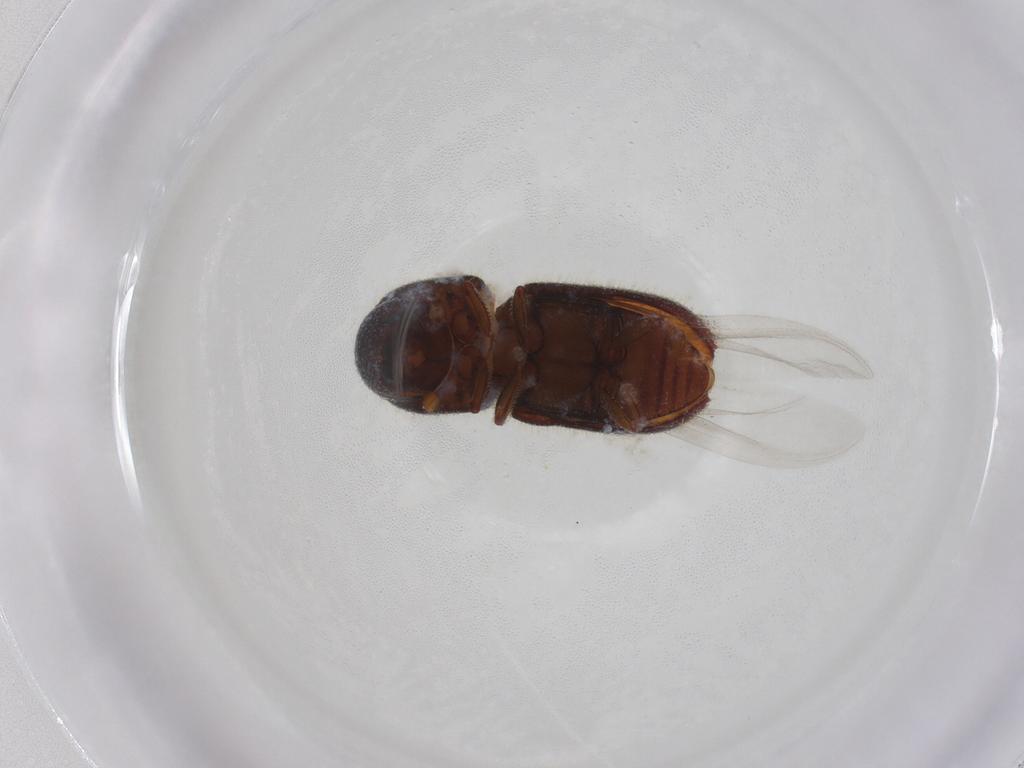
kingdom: Animalia
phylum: Arthropoda
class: Insecta
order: Coleoptera
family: Curculionidae
